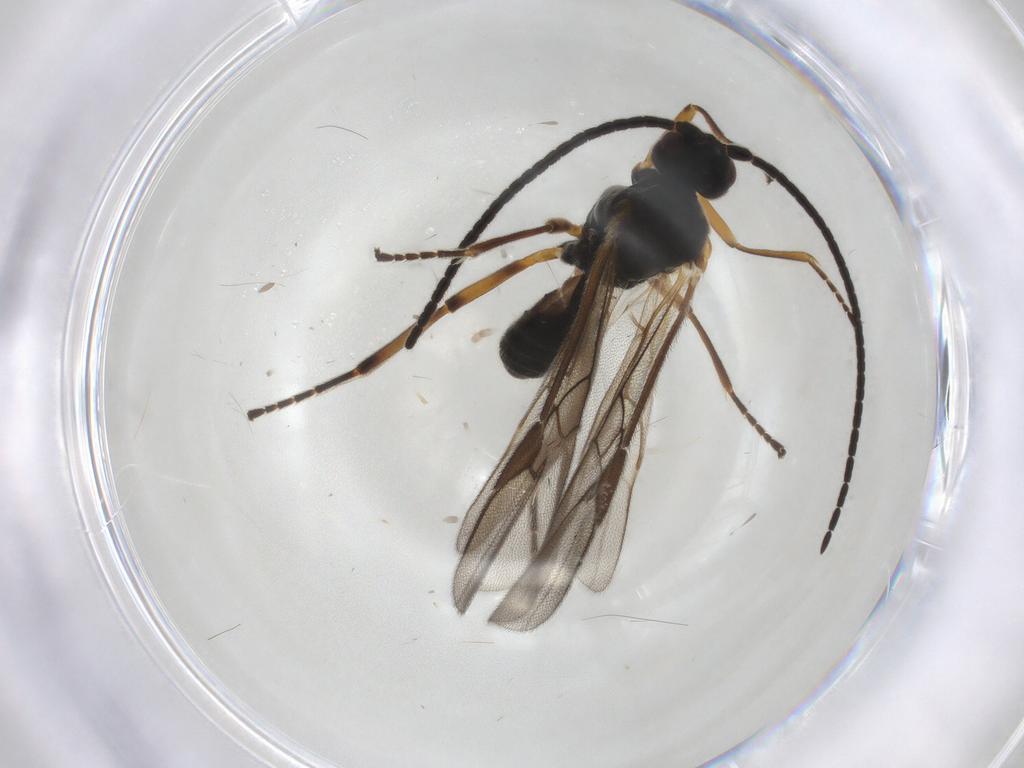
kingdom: Animalia
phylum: Arthropoda
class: Insecta
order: Hymenoptera
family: Braconidae
